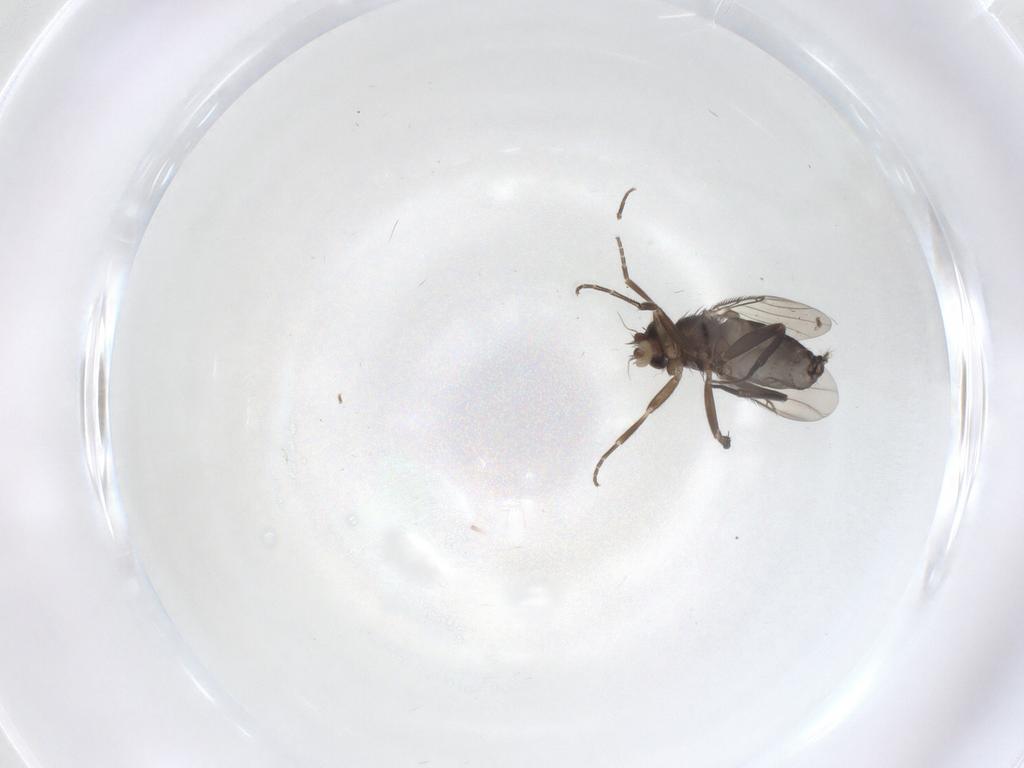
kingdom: Animalia
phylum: Arthropoda
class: Insecta
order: Diptera
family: Phoridae
